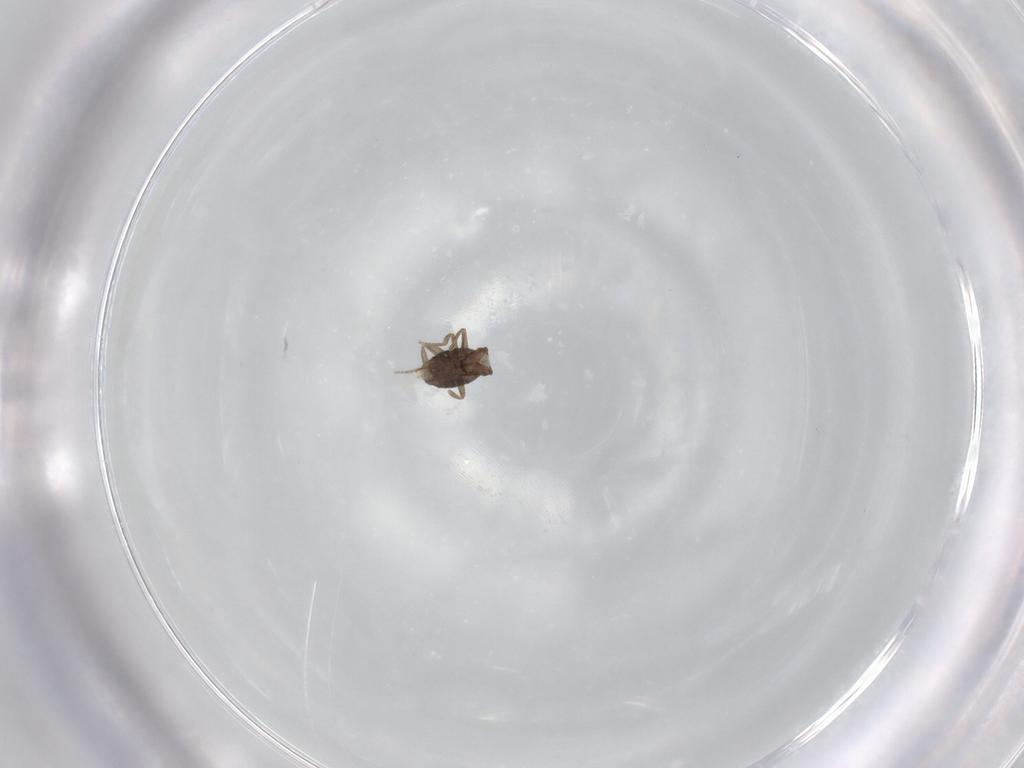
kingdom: Animalia
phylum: Arthropoda
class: Insecta
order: Diptera
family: Phoridae
